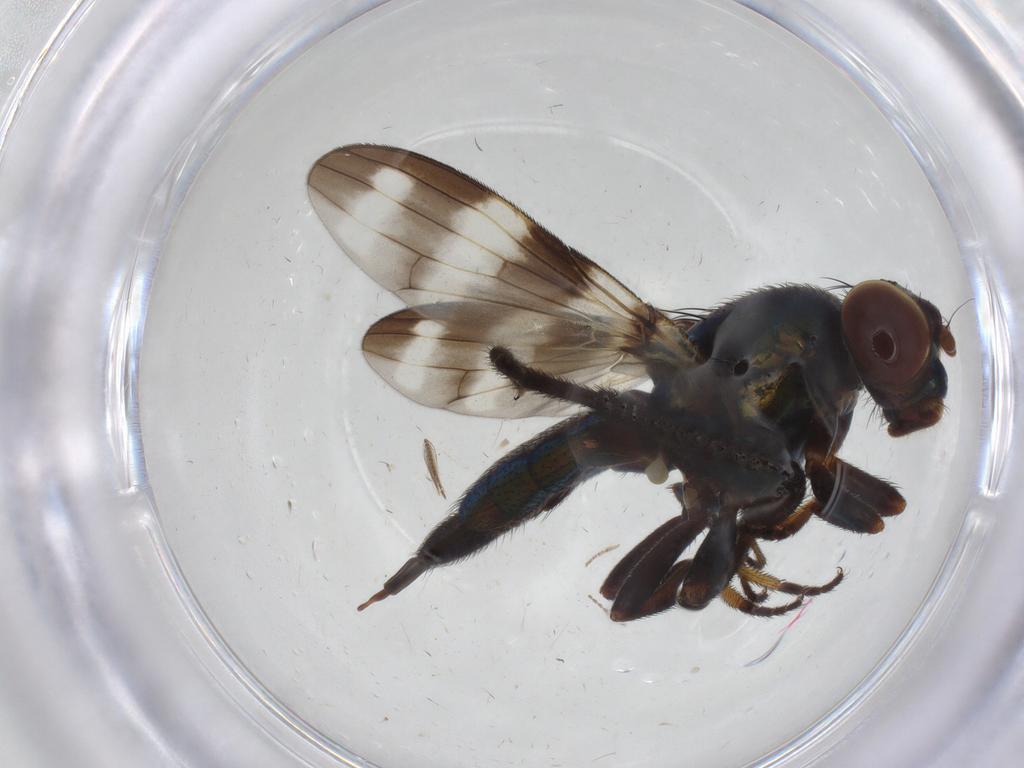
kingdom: Animalia
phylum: Arthropoda
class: Insecta
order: Diptera
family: Ulidiidae
